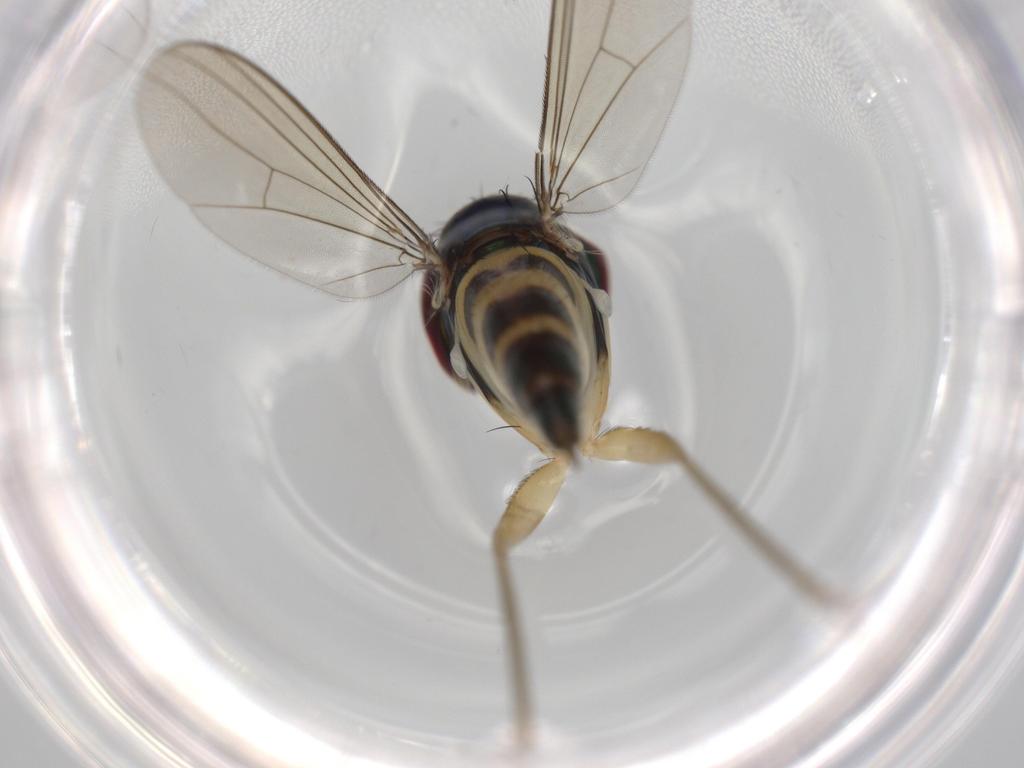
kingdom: Animalia
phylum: Arthropoda
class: Insecta
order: Diptera
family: Dolichopodidae
